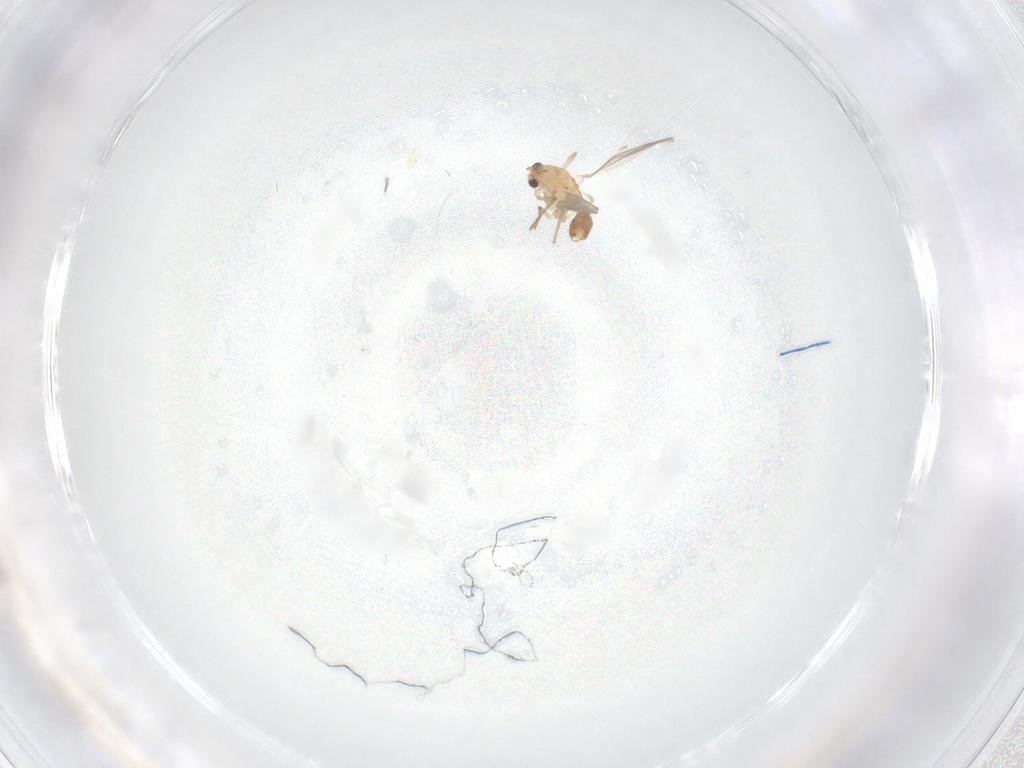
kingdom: Animalia
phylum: Arthropoda
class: Insecta
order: Diptera
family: Chironomidae
